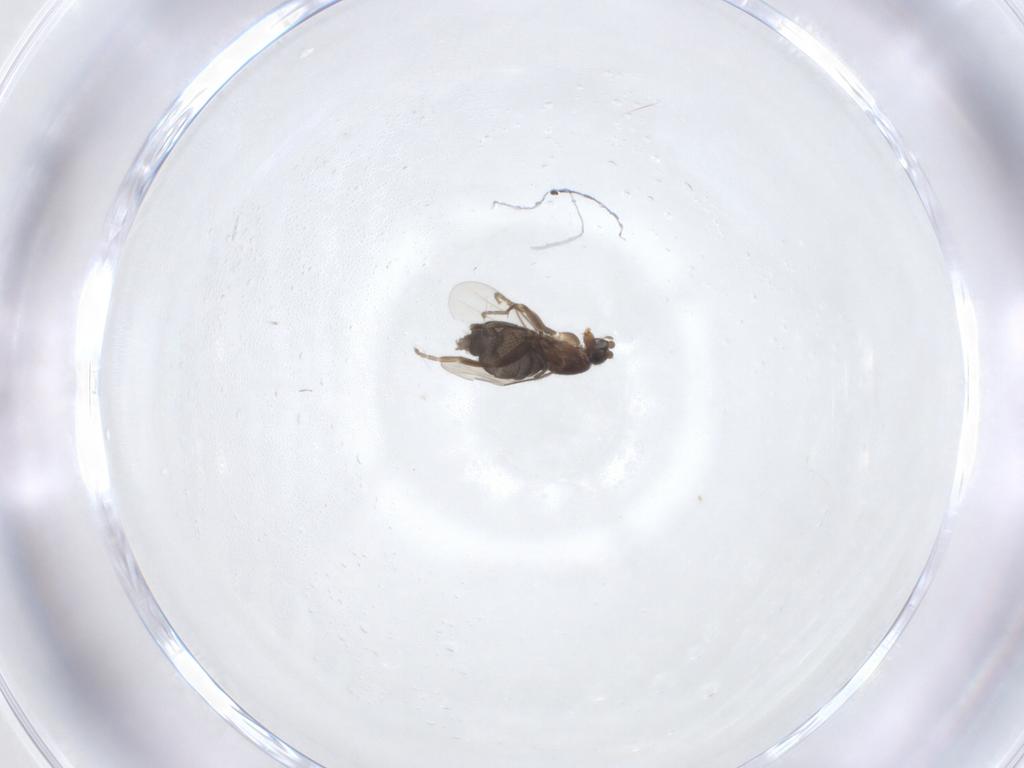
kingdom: Animalia
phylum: Arthropoda
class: Insecta
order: Diptera
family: Phoridae
